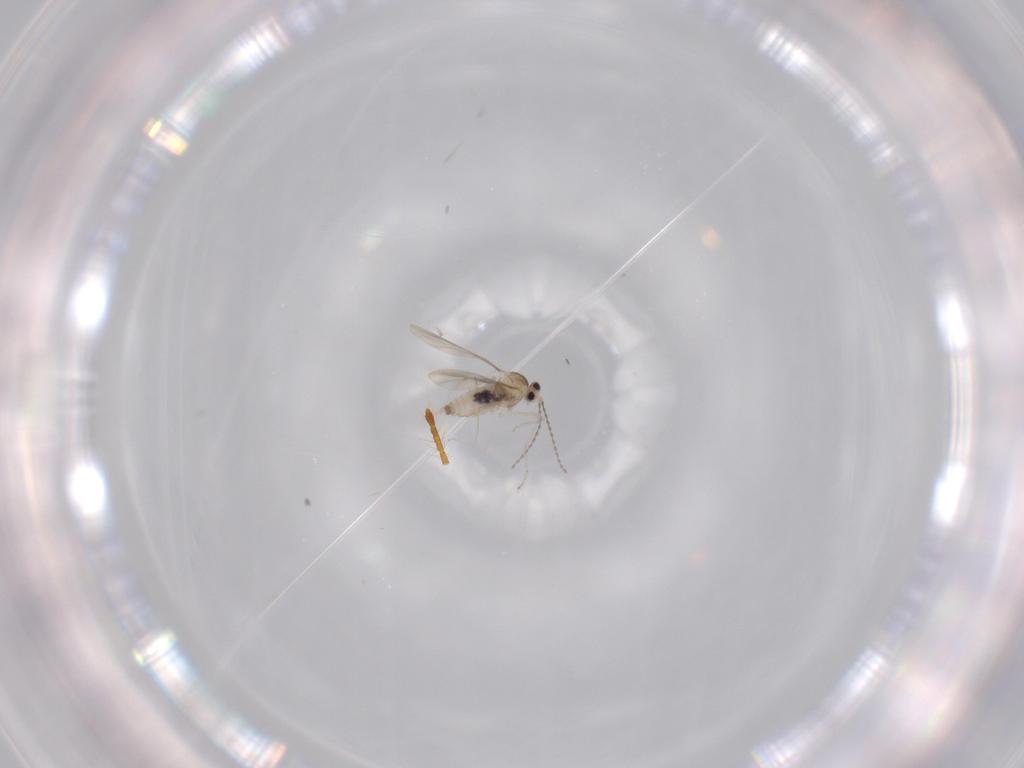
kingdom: Animalia
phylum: Arthropoda
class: Insecta
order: Diptera
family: Cecidomyiidae
